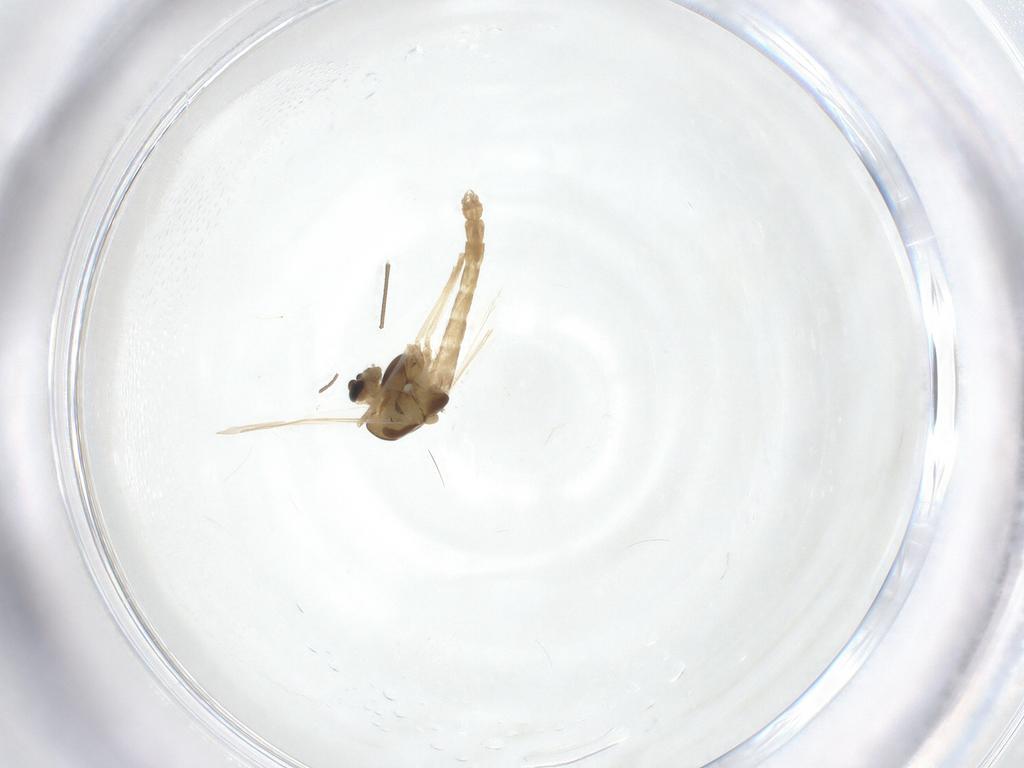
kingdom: Animalia
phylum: Arthropoda
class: Insecta
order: Diptera
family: Chironomidae
